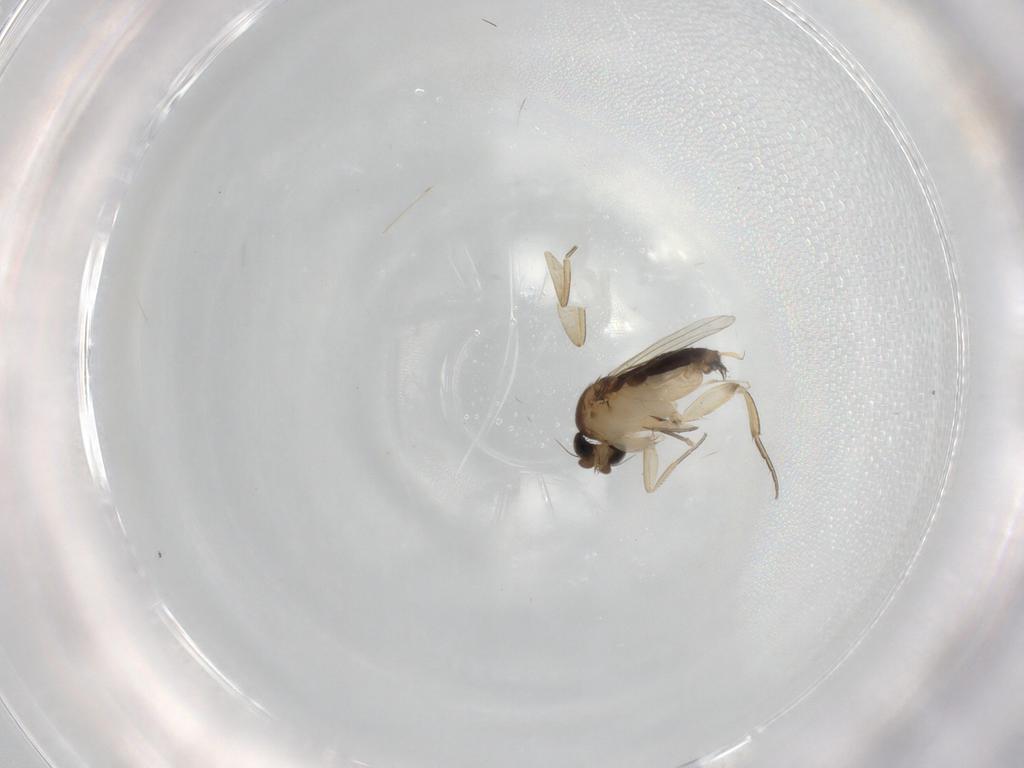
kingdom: Animalia
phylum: Arthropoda
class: Insecta
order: Diptera
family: Phoridae
